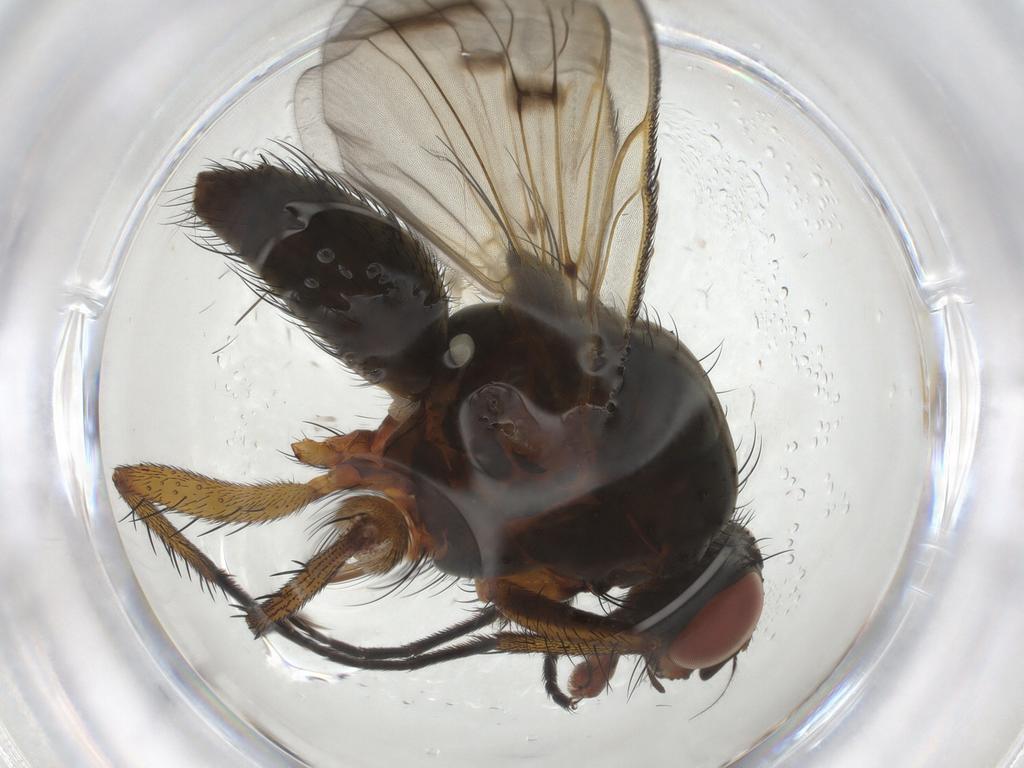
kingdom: Animalia
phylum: Arthropoda
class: Insecta
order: Diptera
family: Anthomyiidae
